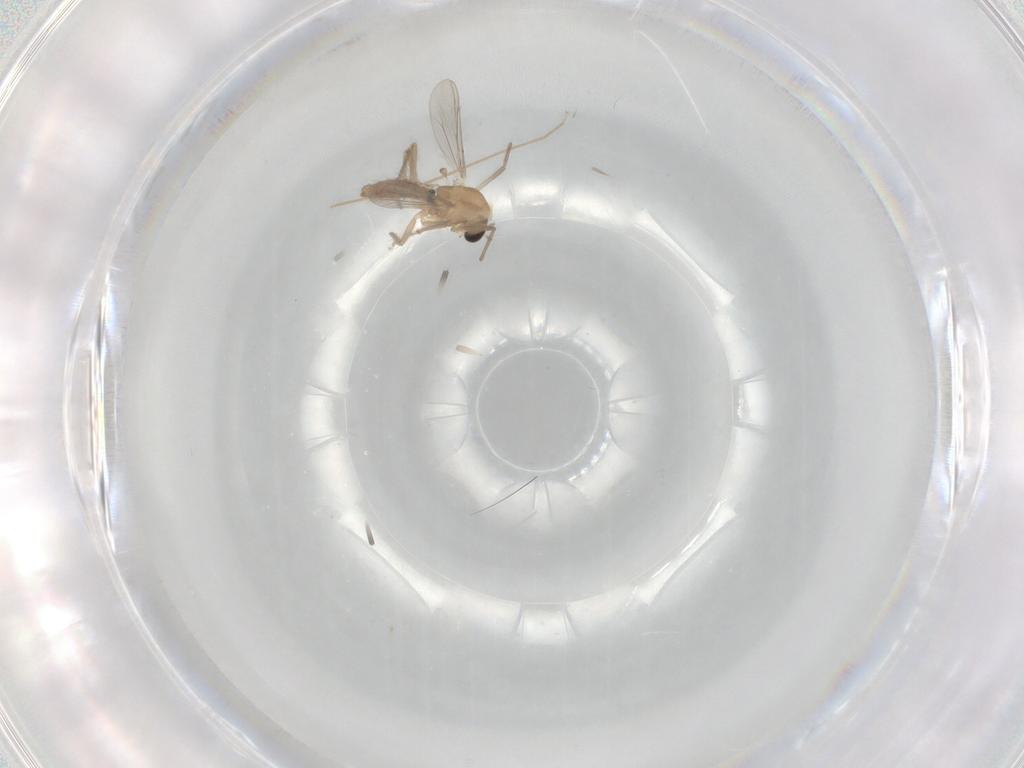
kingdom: Animalia
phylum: Arthropoda
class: Insecta
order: Diptera
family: Chironomidae
